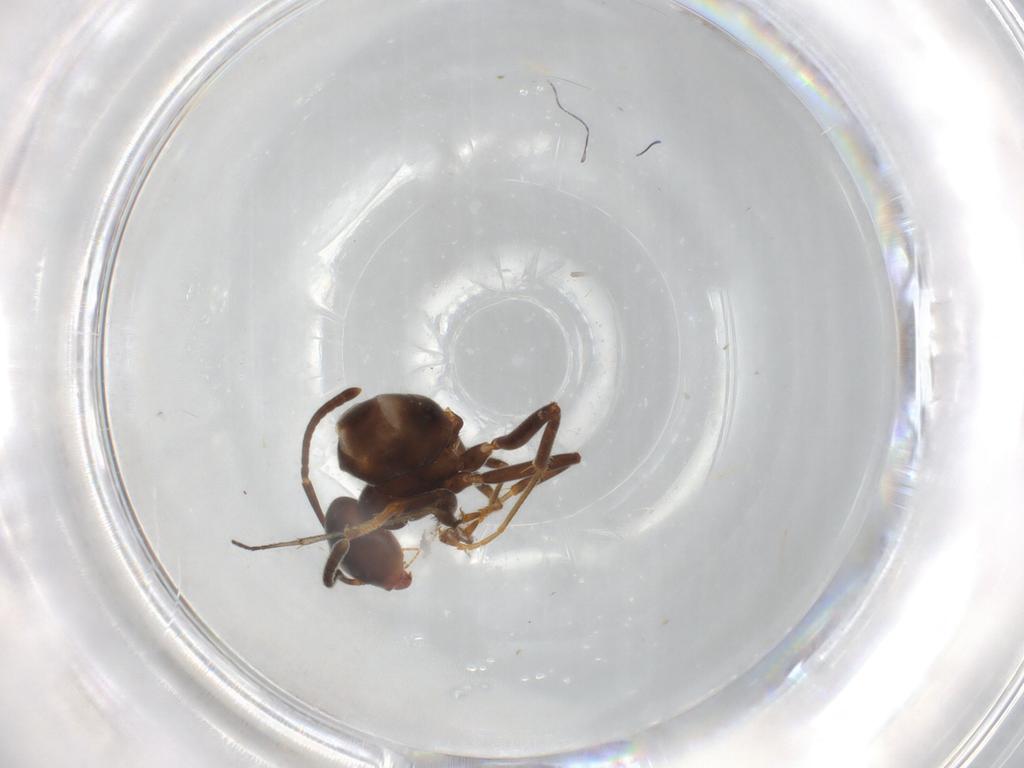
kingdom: Animalia
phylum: Arthropoda
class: Insecta
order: Hymenoptera
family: Formicidae
